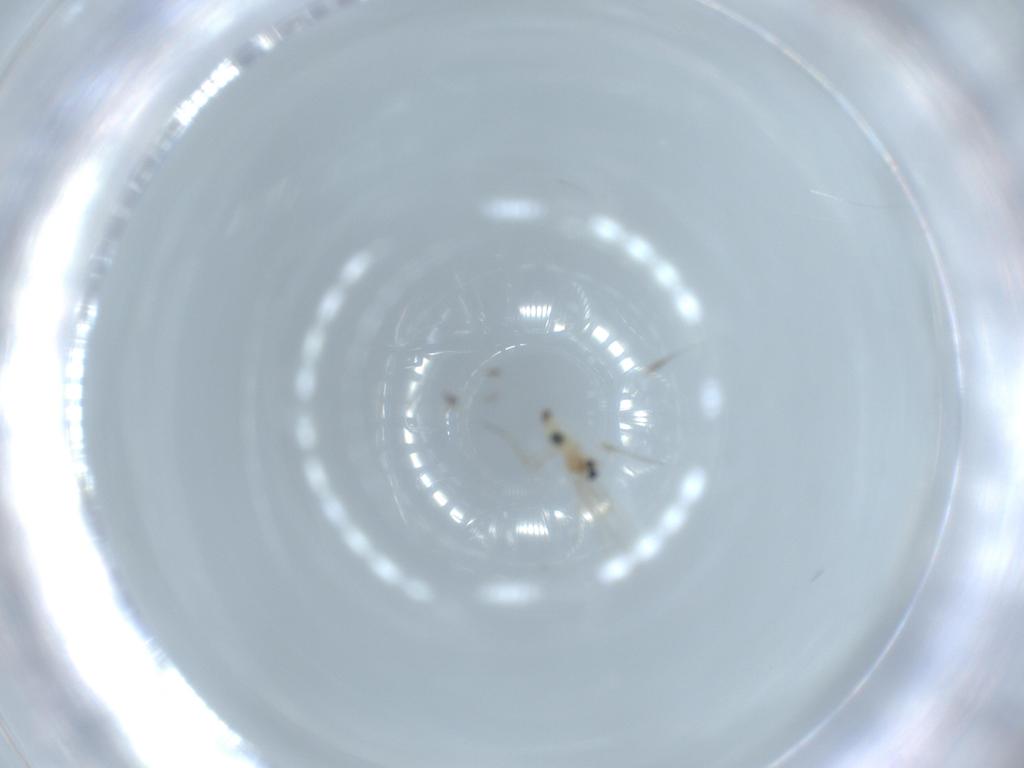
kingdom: Animalia
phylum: Arthropoda
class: Insecta
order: Diptera
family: Cecidomyiidae
